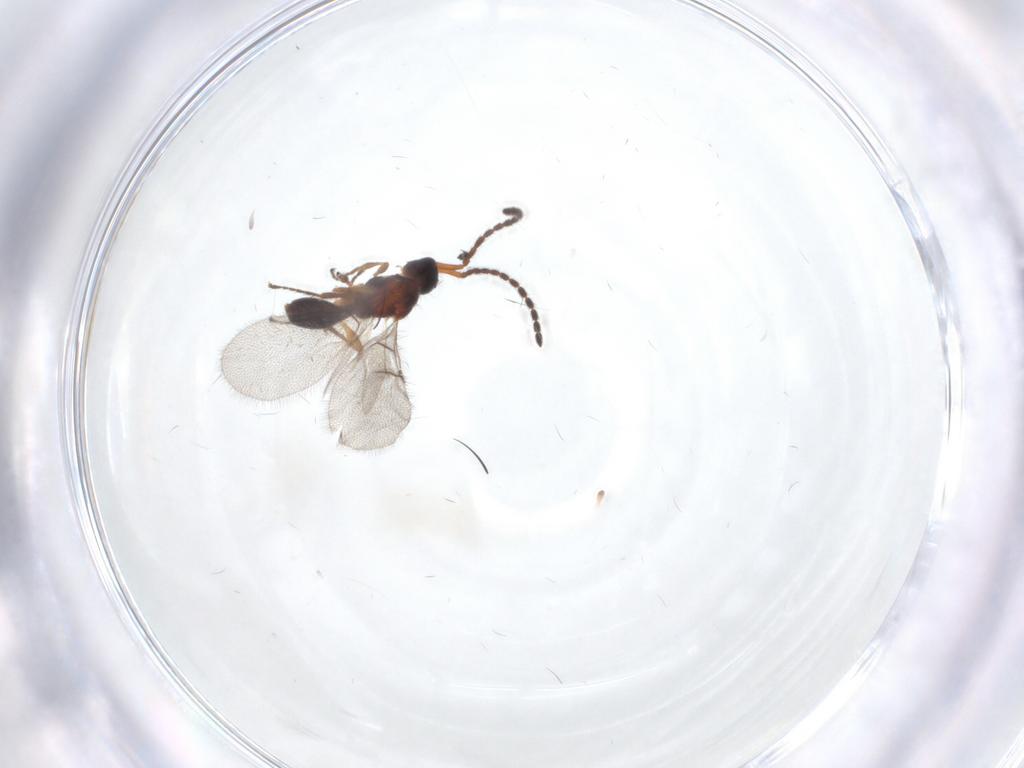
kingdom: Animalia
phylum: Arthropoda
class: Insecta
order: Hymenoptera
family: Diapriidae
